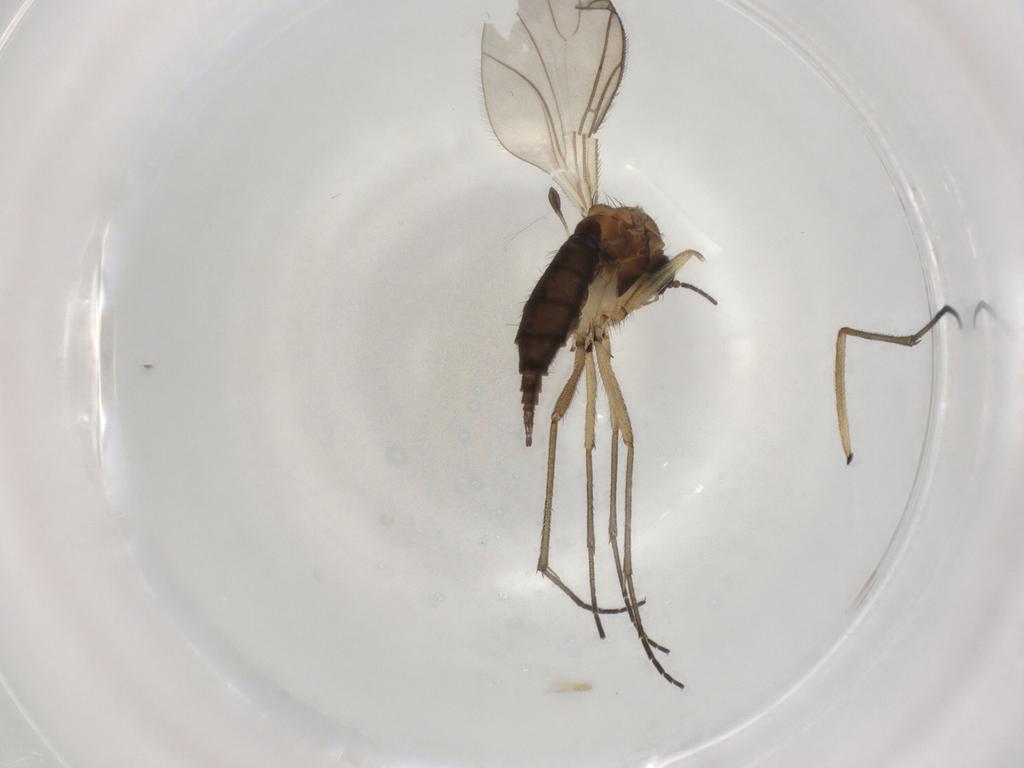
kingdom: Animalia
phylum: Arthropoda
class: Insecta
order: Diptera
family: Sciaridae
